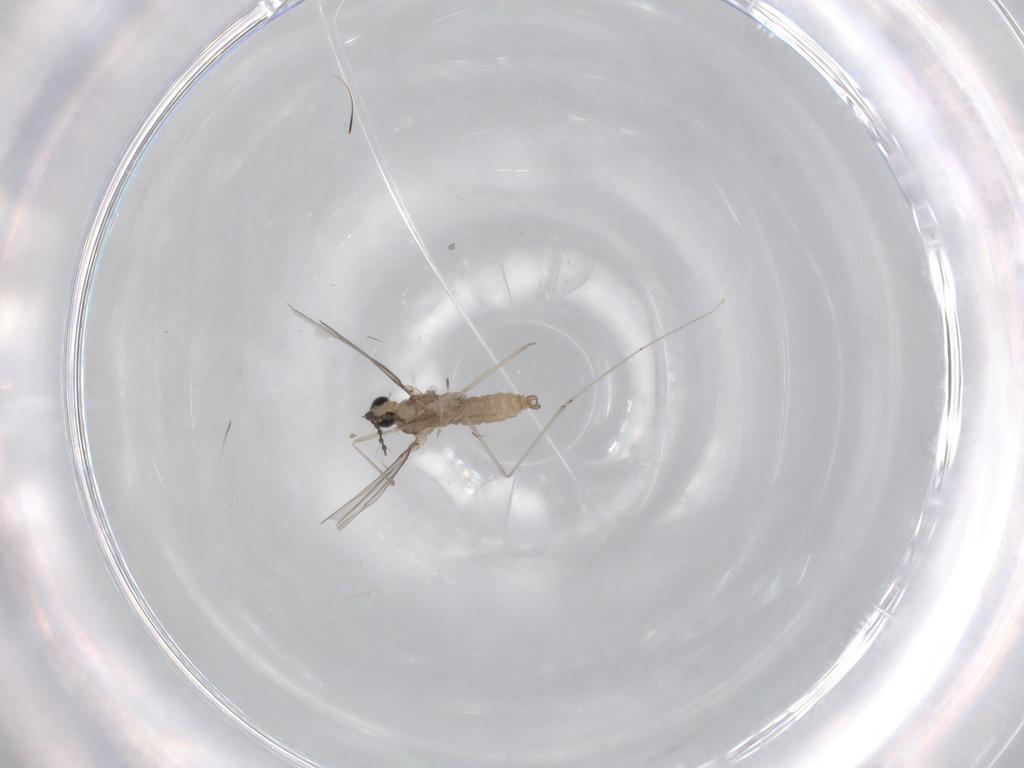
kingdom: Animalia
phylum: Arthropoda
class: Insecta
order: Diptera
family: Cecidomyiidae
